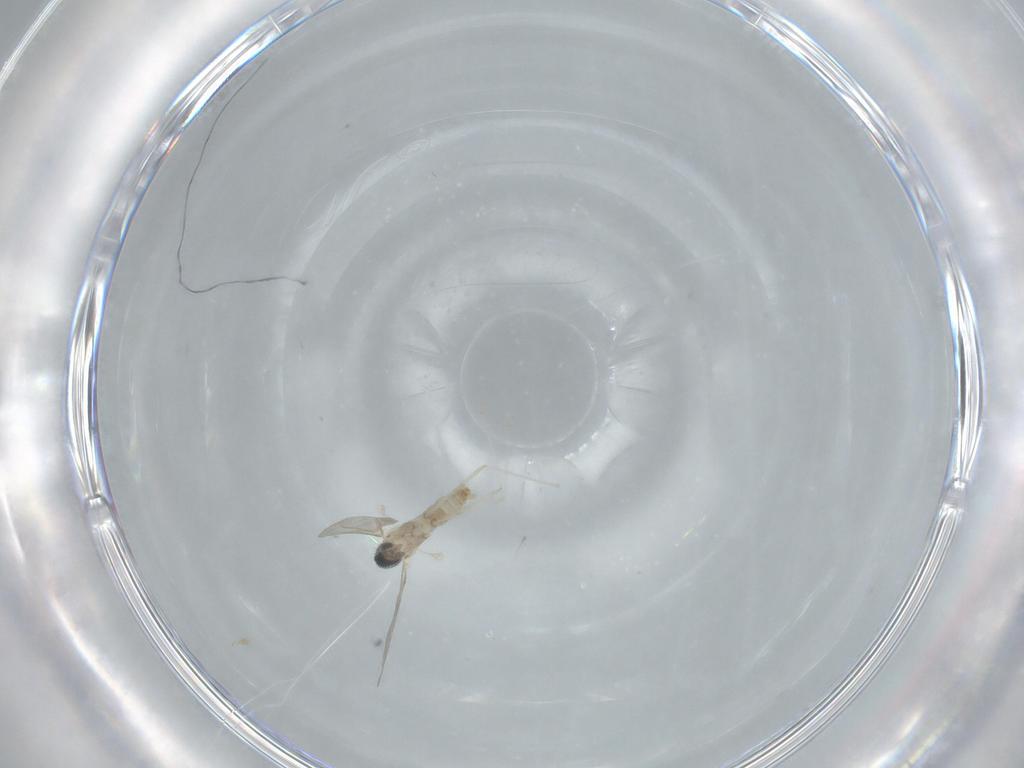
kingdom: Animalia
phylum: Arthropoda
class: Insecta
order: Diptera
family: Cecidomyiidae
